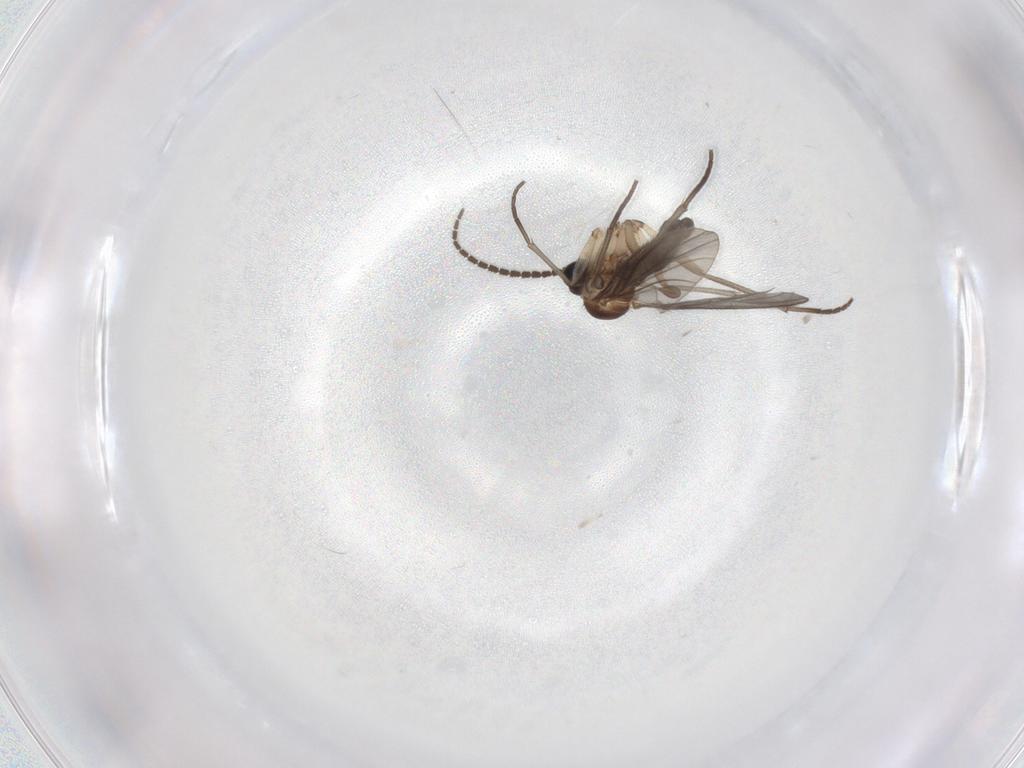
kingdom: Animalia
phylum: Arthropoda
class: Insecta
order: Diptera
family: Sciaridae
